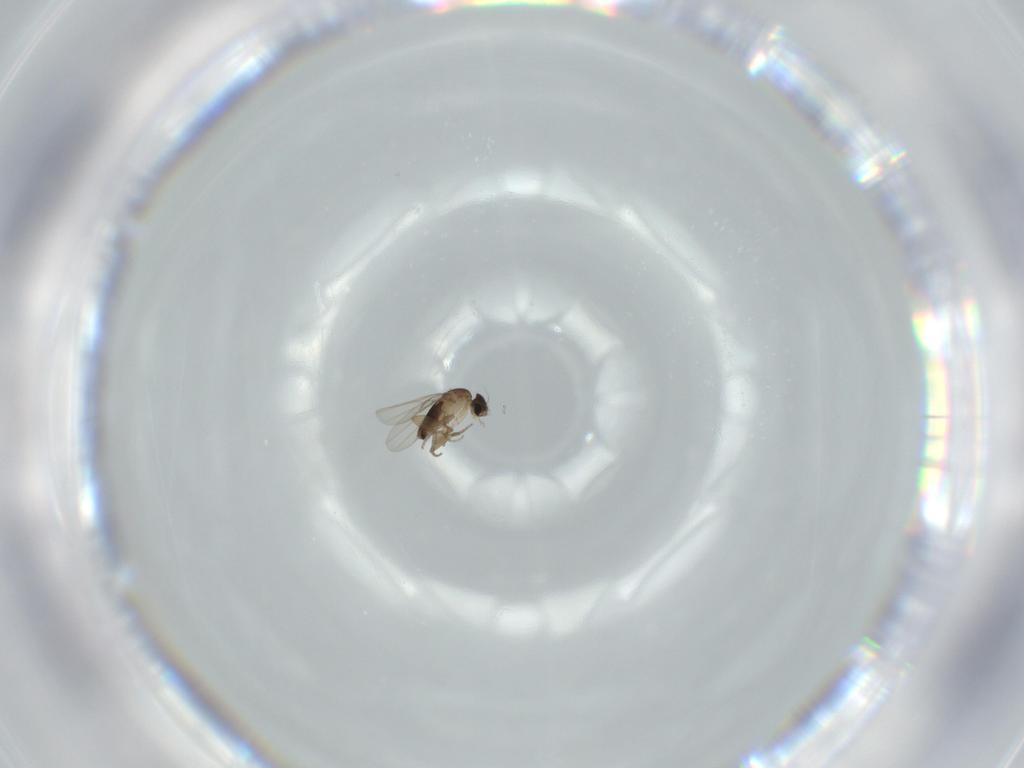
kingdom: Animalia
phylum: Arthropoda
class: Insecta
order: Diptera
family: Phoridae
